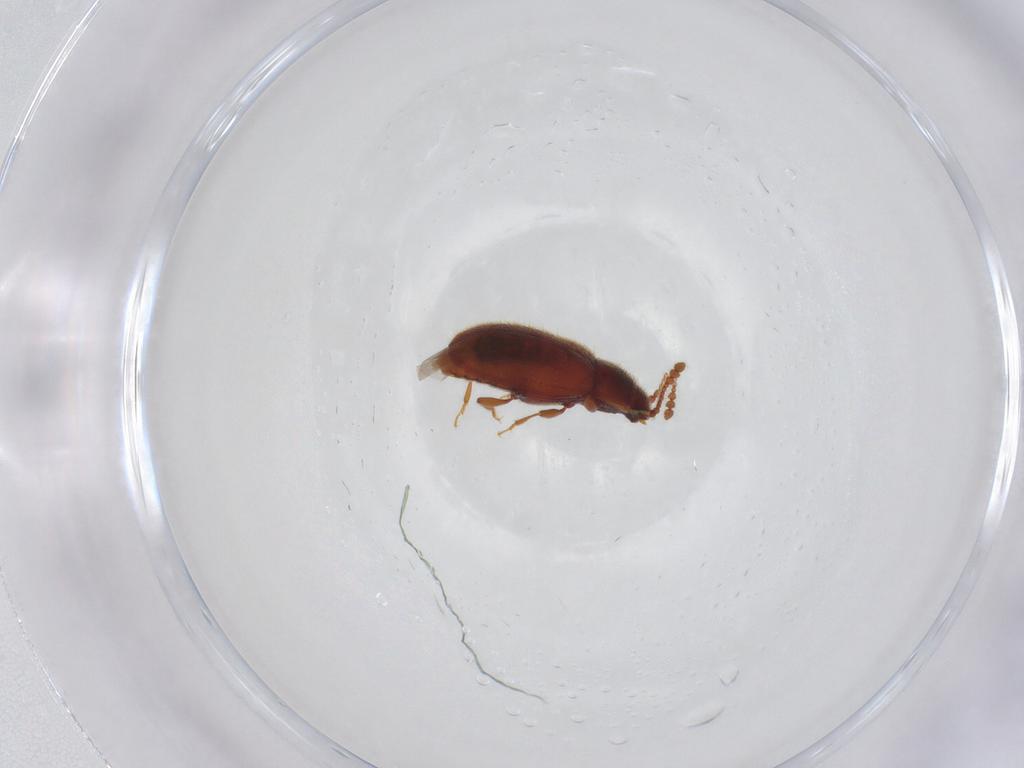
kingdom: Animalia
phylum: Arthropoda
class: Insecta
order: Coleoptera
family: Cryptophagidae
